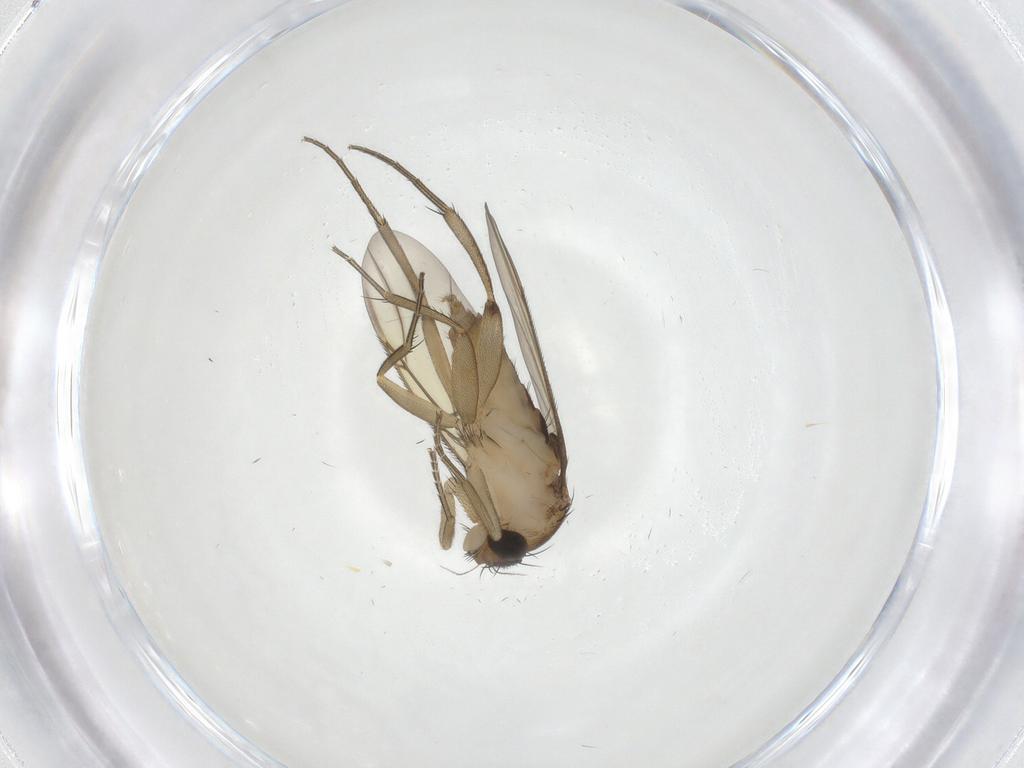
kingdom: Animalia
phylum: Arthropoda
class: Insecta
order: Diptera
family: Phoridae
